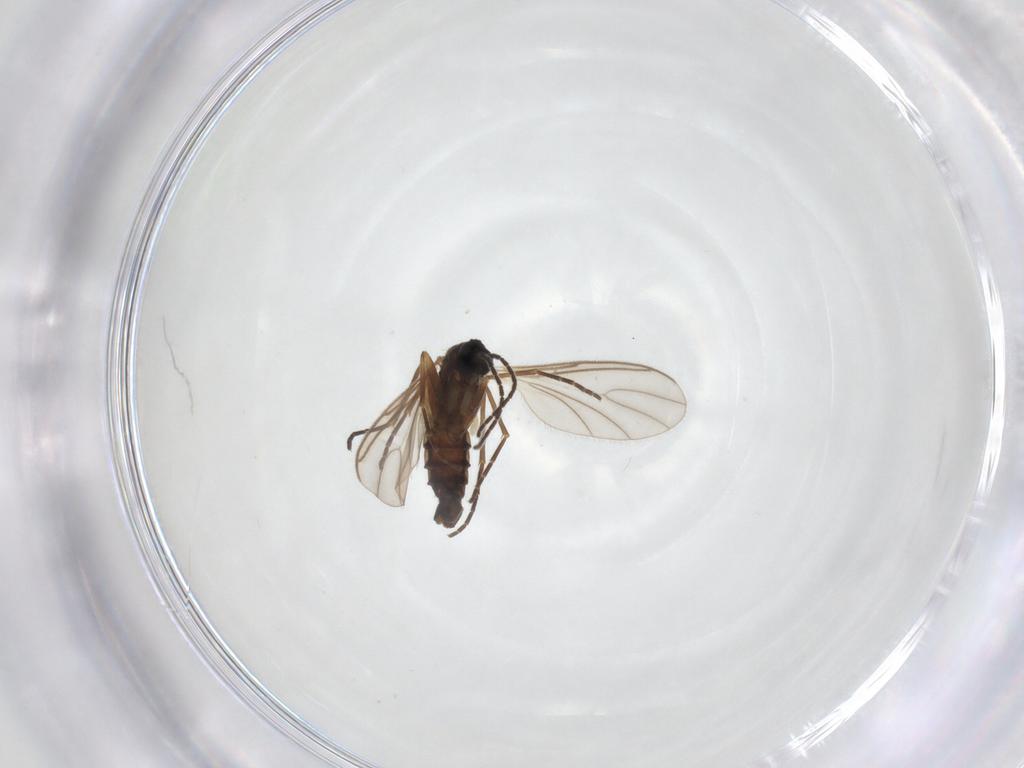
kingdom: Animalia
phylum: Arthropoda
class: Insecta
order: Diptera
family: Sciaridae
